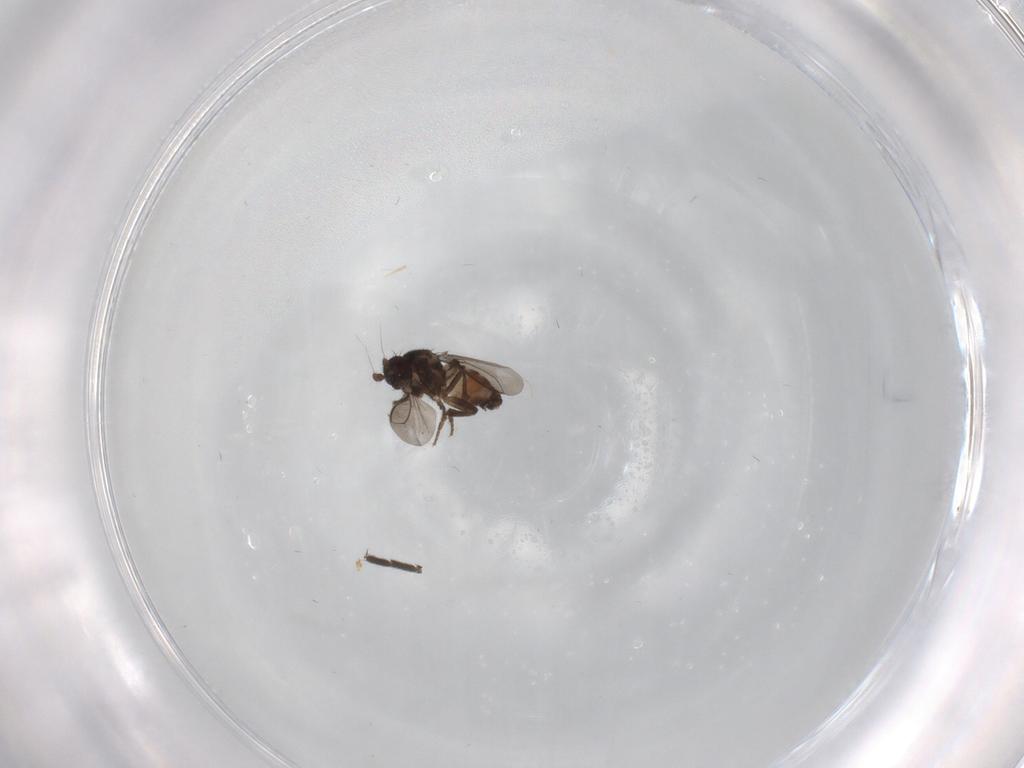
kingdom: Animalia
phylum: Arthropoda
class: Insecta
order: Diptera
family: Sphaeroceridae
